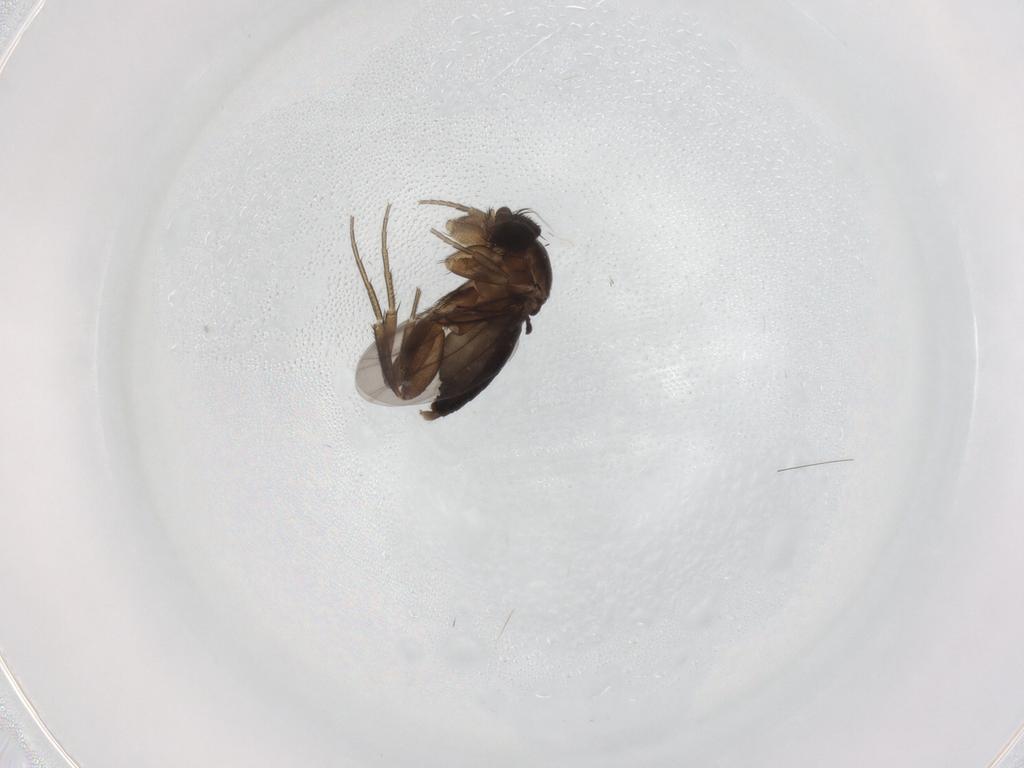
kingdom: Animalia
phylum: Arthropoda
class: Insecta
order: Diptera
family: Phoridae
